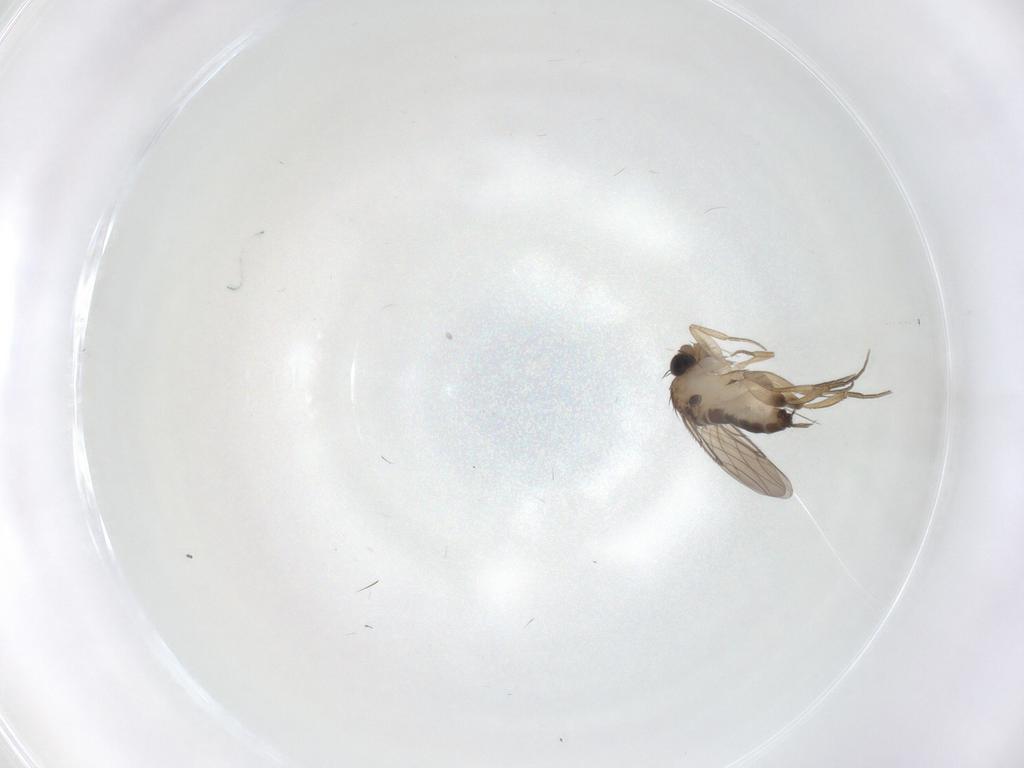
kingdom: Animalia
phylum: Arthropoda
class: Insecta
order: Diptera
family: Phoridae
